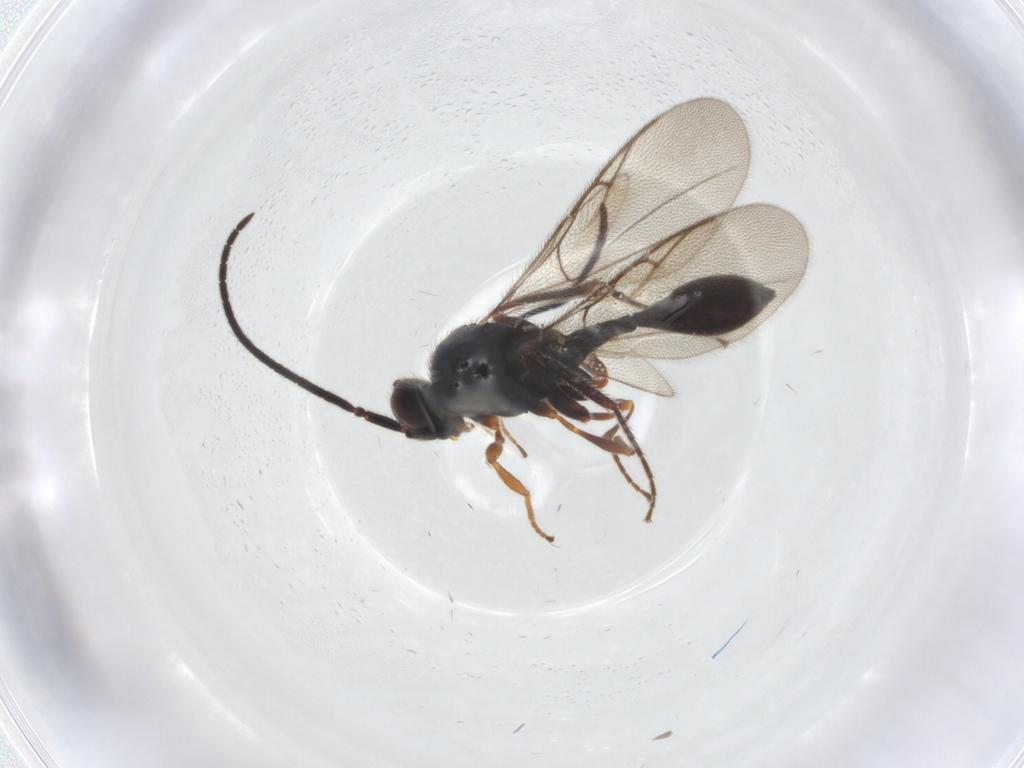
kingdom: Animalia
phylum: Arthropoda
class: Insecta
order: Hymenoptera
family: Diapriidae
